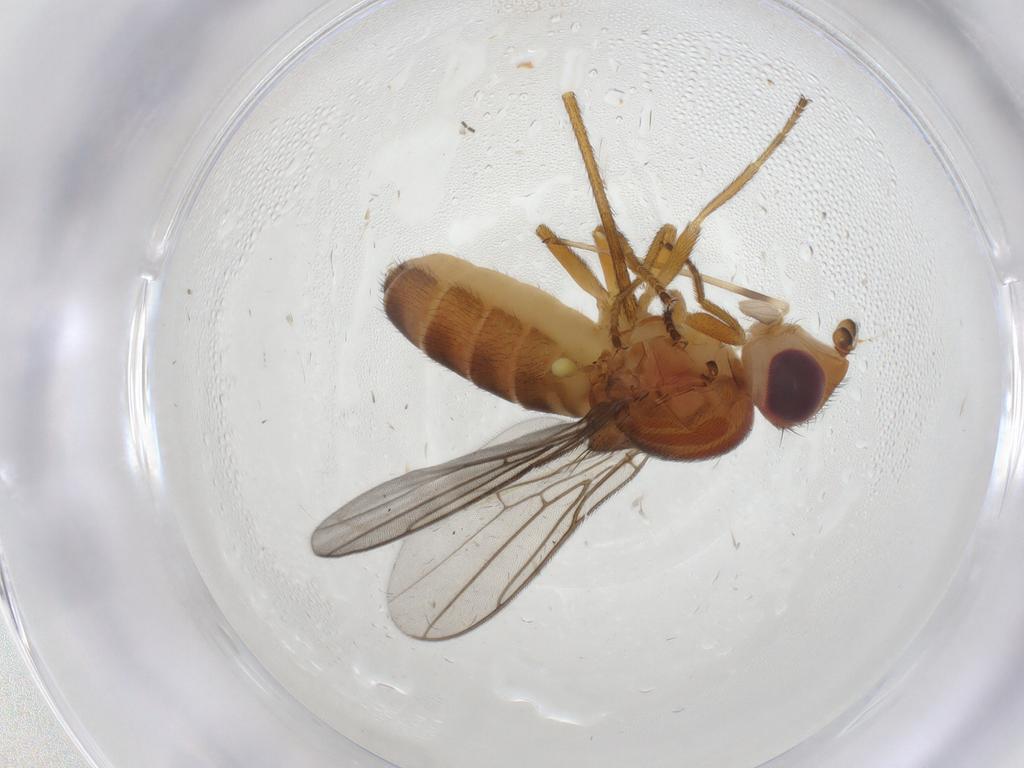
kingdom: Animalia
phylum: Arthropoda
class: Insecta
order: Diptera
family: Chloropidae
